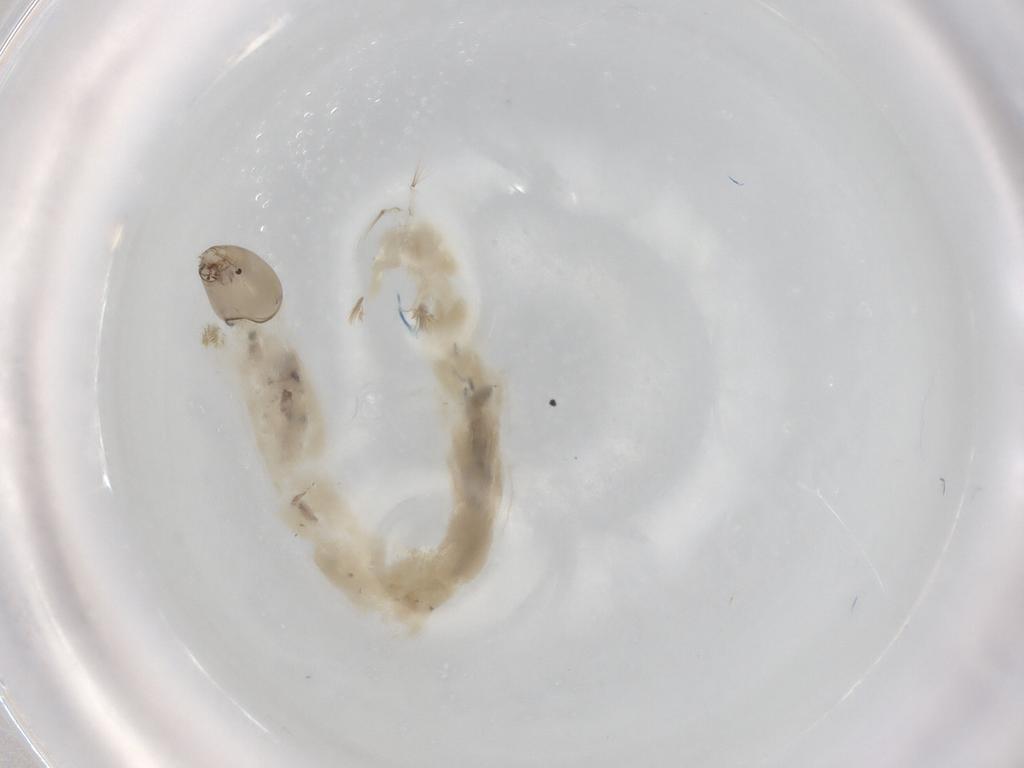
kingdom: Animalia
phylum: Arthropoda
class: Insecta
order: Diptera
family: Chironomidae
